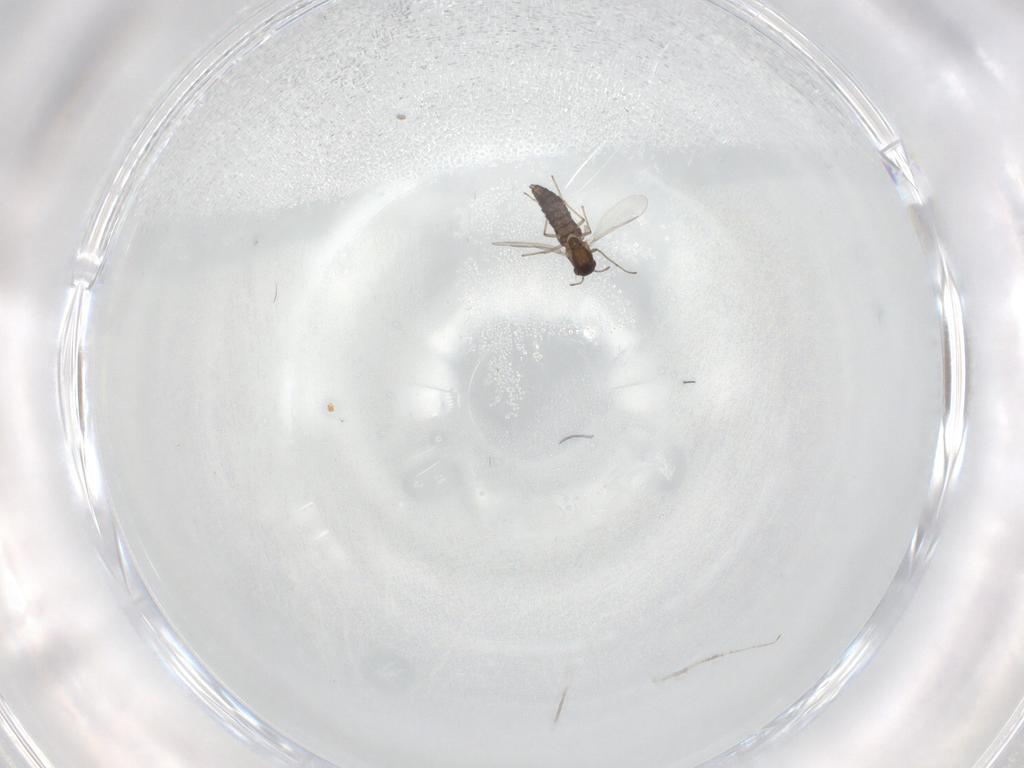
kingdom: Animalia
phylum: Arthropoda
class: Insecta
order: Diptera
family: Chironomidae
